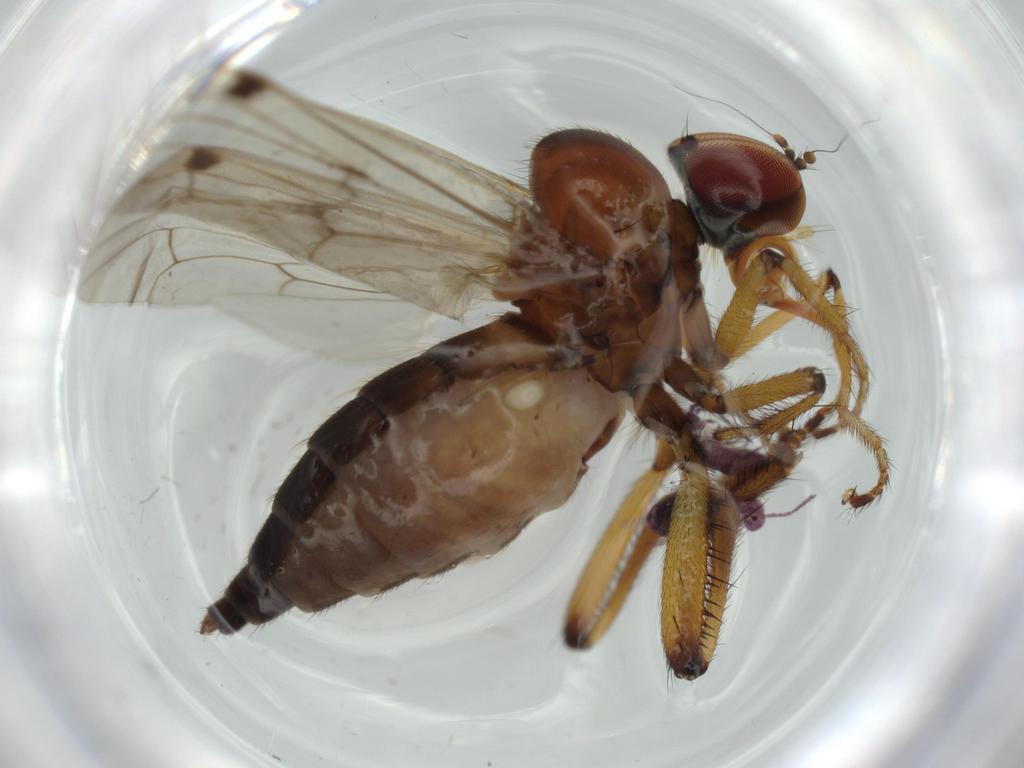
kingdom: Animalia
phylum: Arthropoda
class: Insecta
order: Diptera
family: Hybotidae
